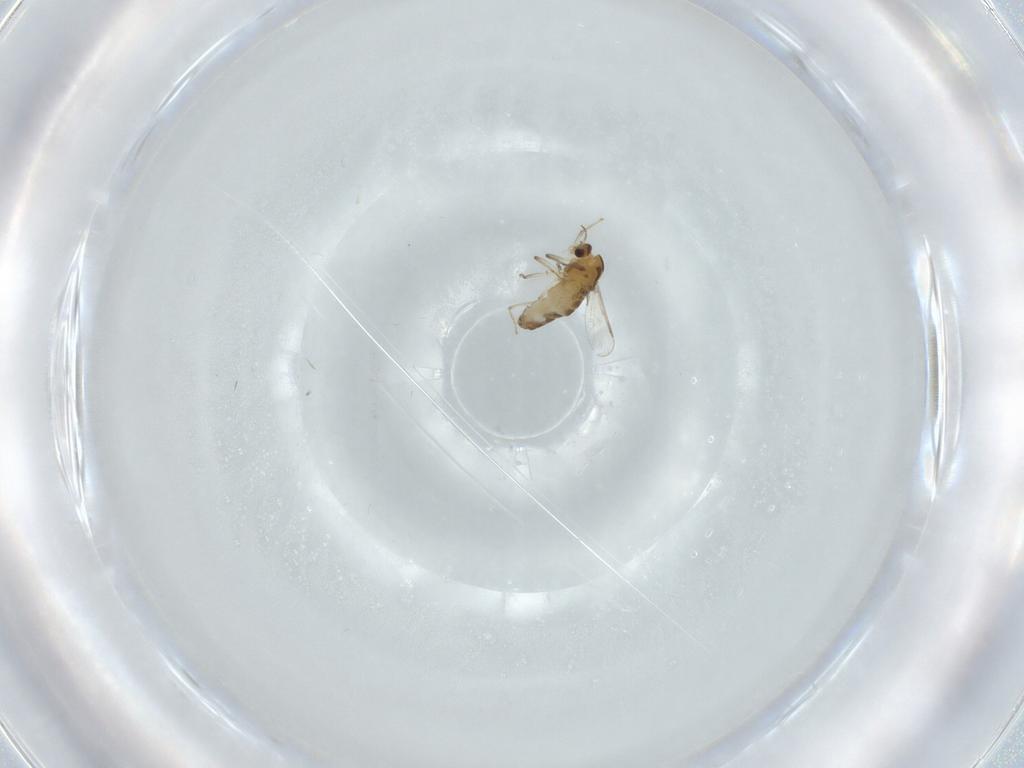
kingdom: Animalia
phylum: Arthropoda
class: Insecta
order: Diptera
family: Chironomidae
